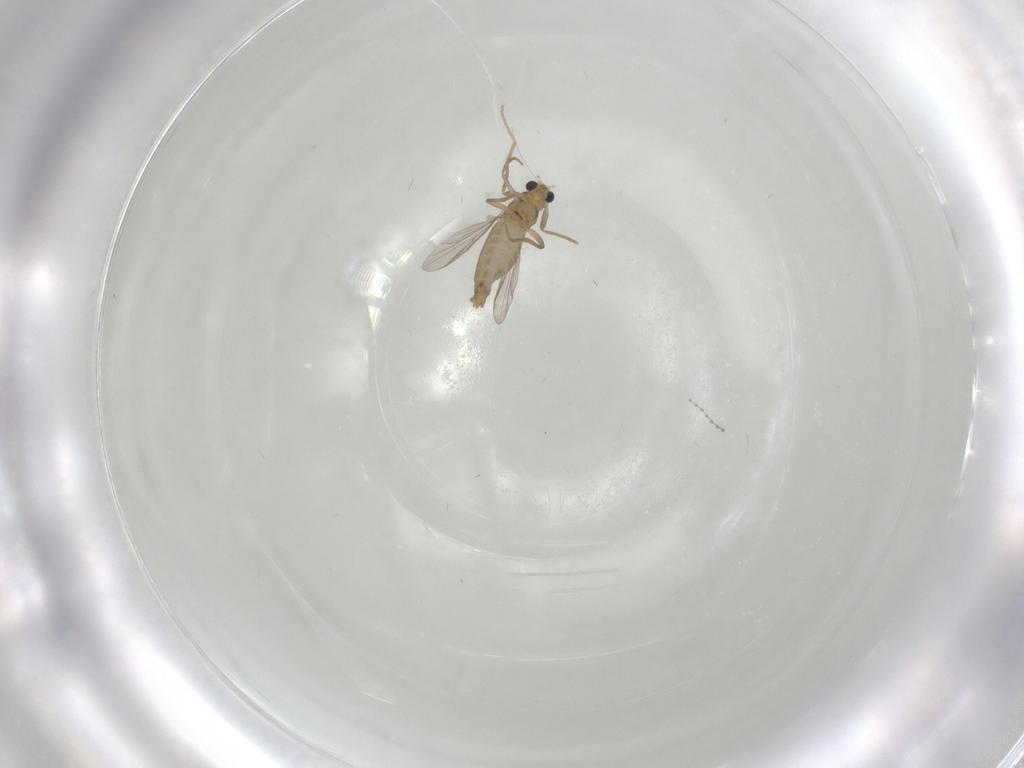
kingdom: Animalia
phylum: Arthropoda
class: Insecta
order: Diptera
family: Chironomidae
